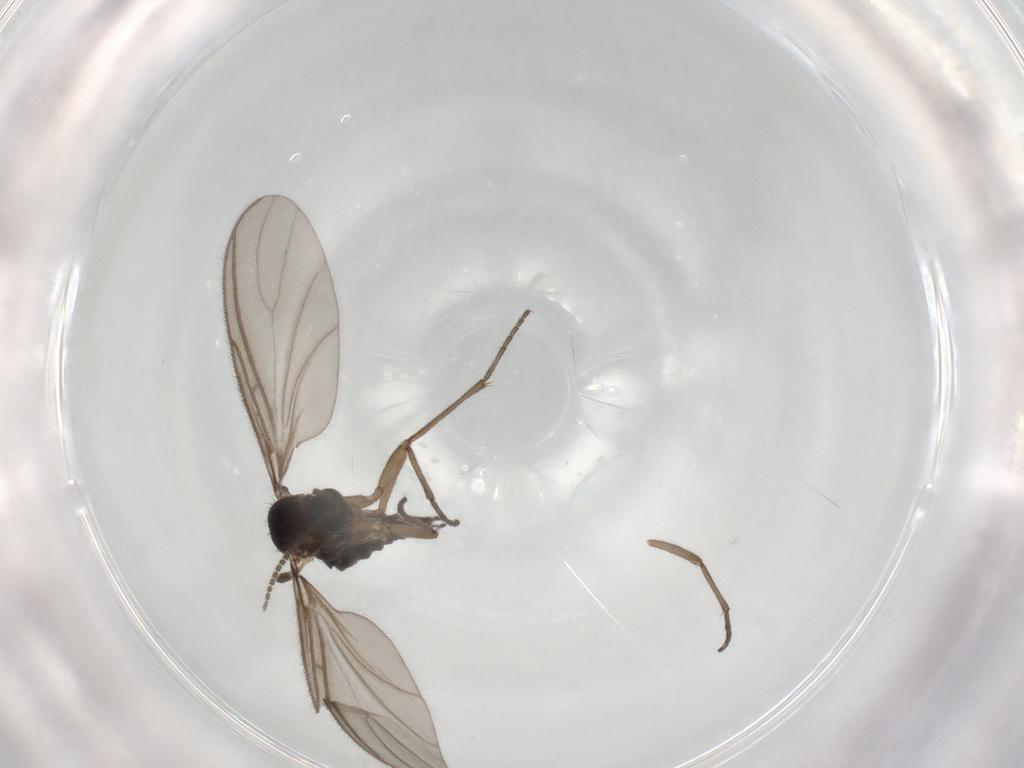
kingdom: Animalia
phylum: Arthropoda
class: Insecta
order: Diptera
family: Sciaridae
